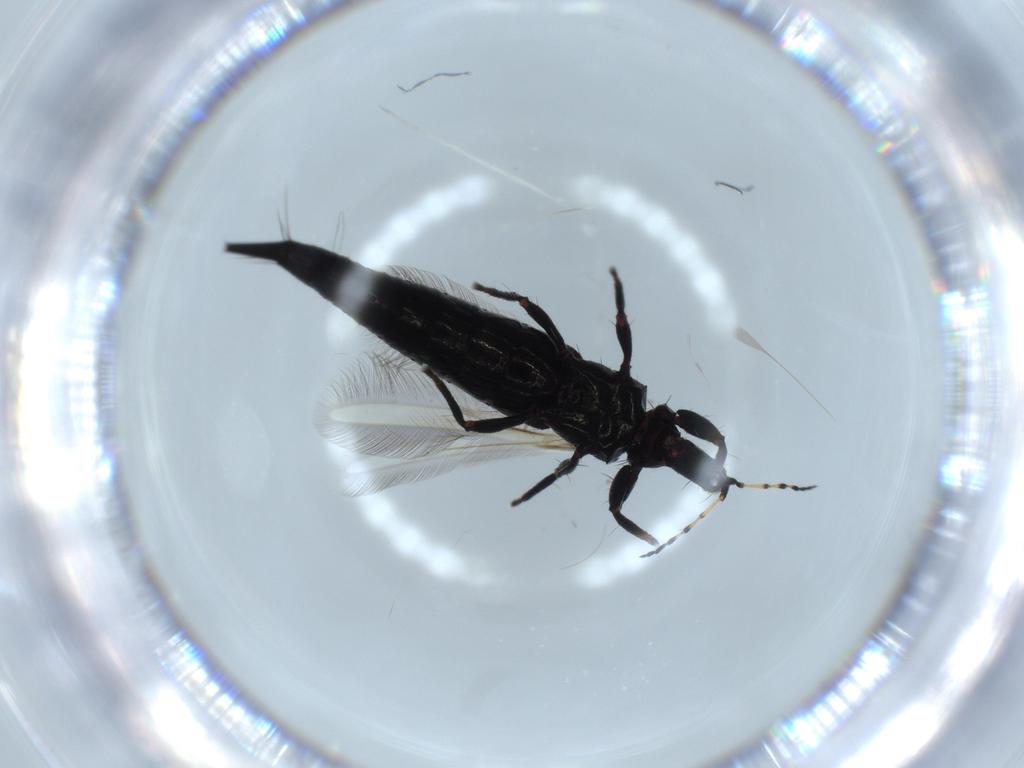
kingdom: Animalia
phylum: Arthropoda
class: Insecta
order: Thysanoptera
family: Phlaeothripidae
